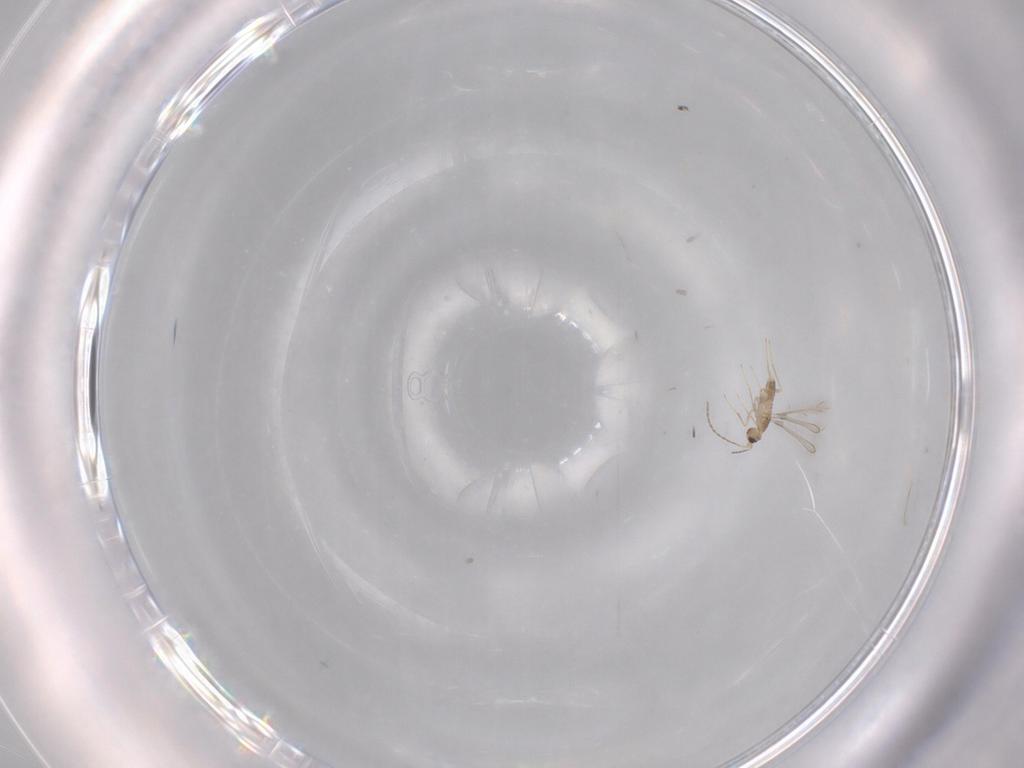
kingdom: Animalia
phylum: Arthropoda
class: Insecta
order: Hymenoptera
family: Mymaridae
